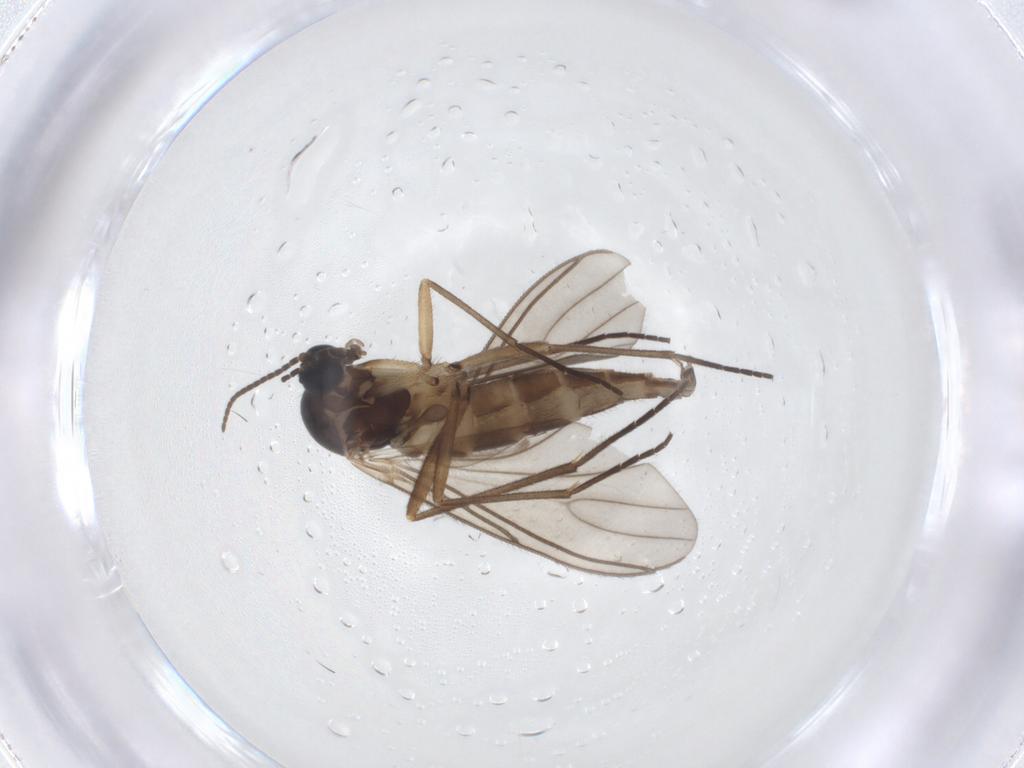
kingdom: Animalia
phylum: Arthropoda
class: Insecta
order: Diptera
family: Sciaridae
